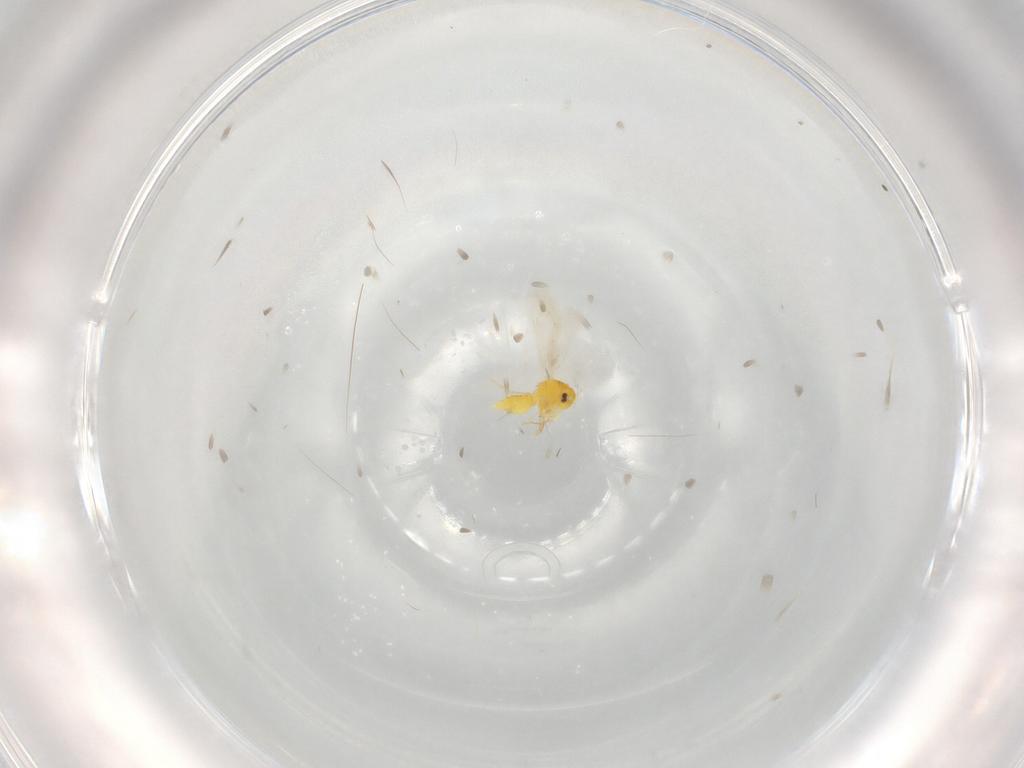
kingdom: Animalia
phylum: Arthropoda
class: Insecta
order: Hemiptera
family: Aleyrodidae
